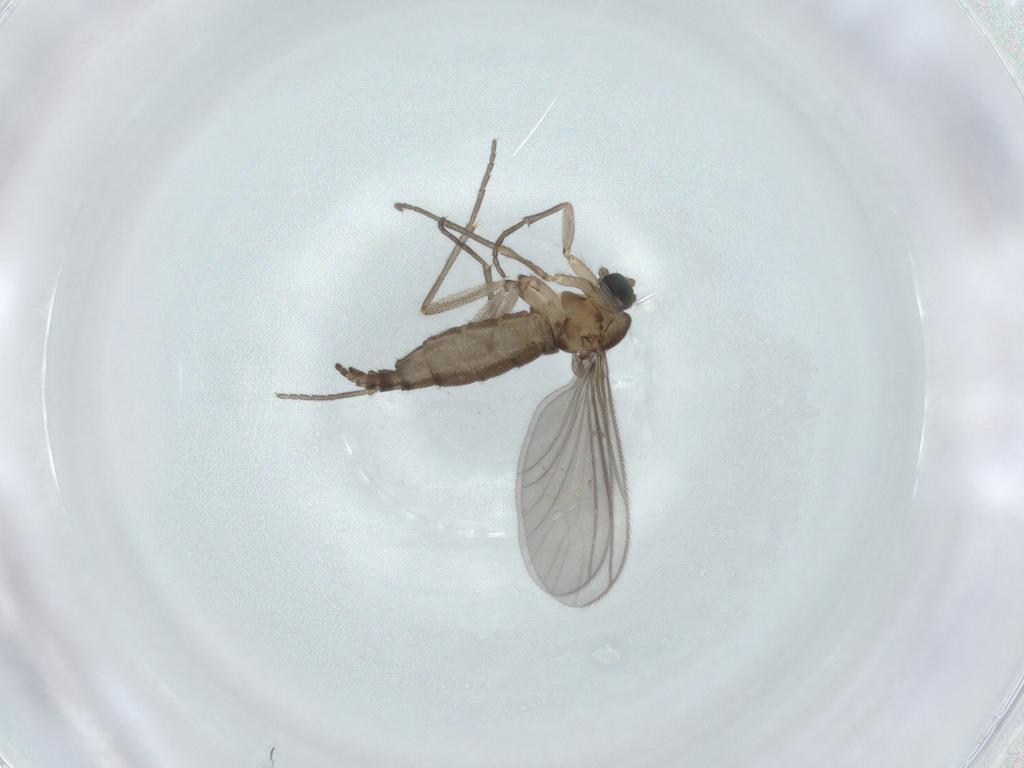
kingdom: Animalia
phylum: Arthropoda
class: Insecta
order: Diptera
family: Sciaridae
